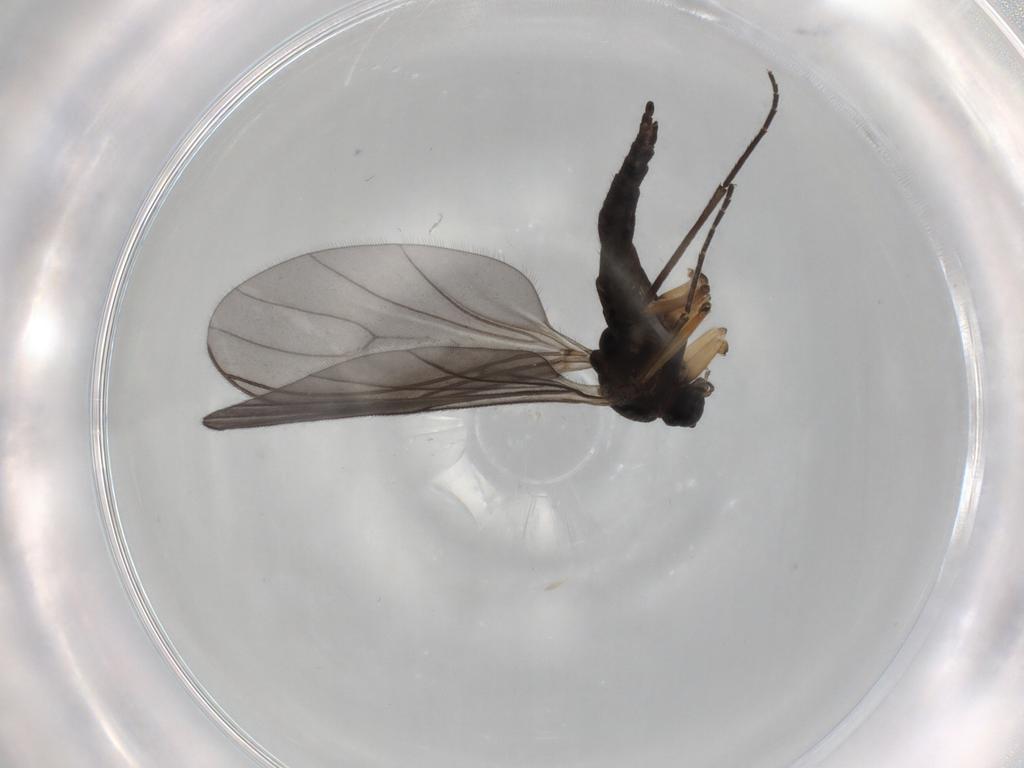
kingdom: Animalia
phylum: Arthropoda
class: Insecta
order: Diptera
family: Sciaridae
